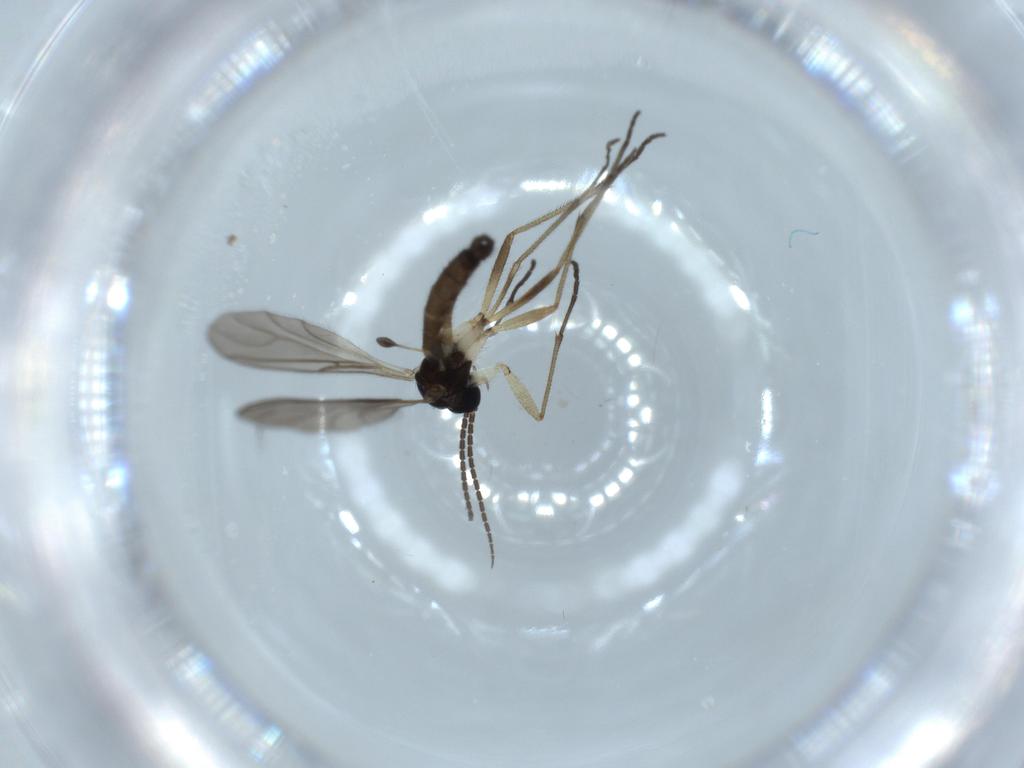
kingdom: Animalia
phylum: Arthropoda
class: Insecta
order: Diptera
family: Sciaridae
